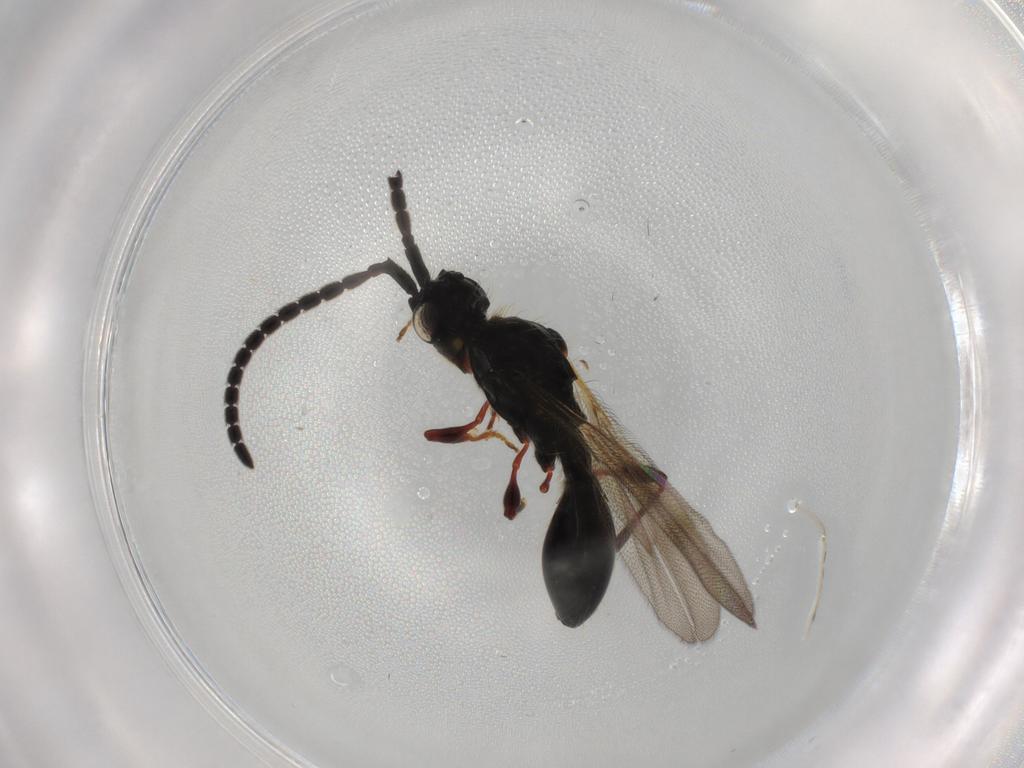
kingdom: Animalia
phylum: Arthropoda
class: Insecta
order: Hymenoptera
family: Diapriidae
